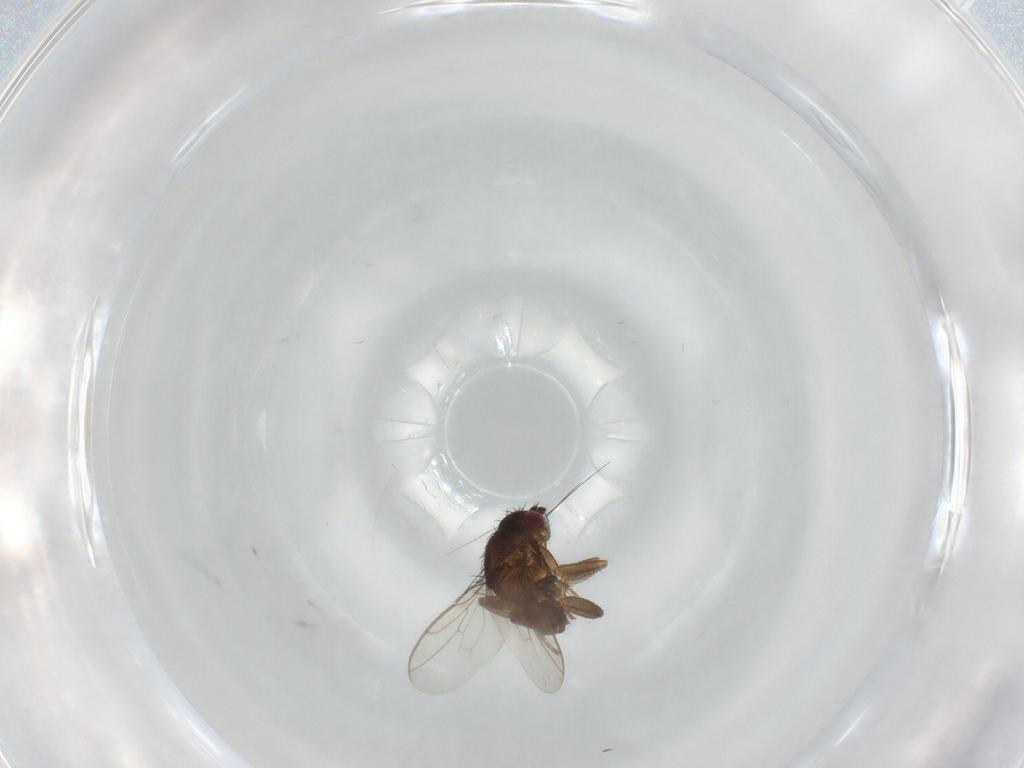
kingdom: Animalia
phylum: Arthropoda
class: Insecta
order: Diptera
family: Sphaeroceridae
